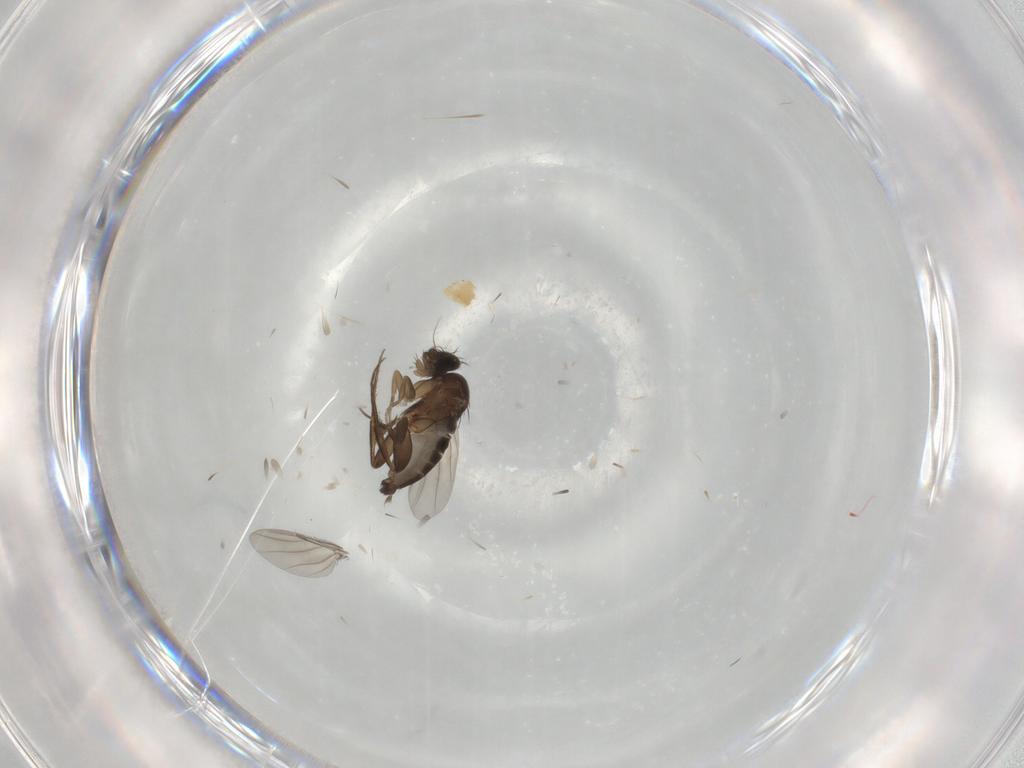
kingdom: Animalia
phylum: Arthropoda
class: Insecta
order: Diptera
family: Phoridae
